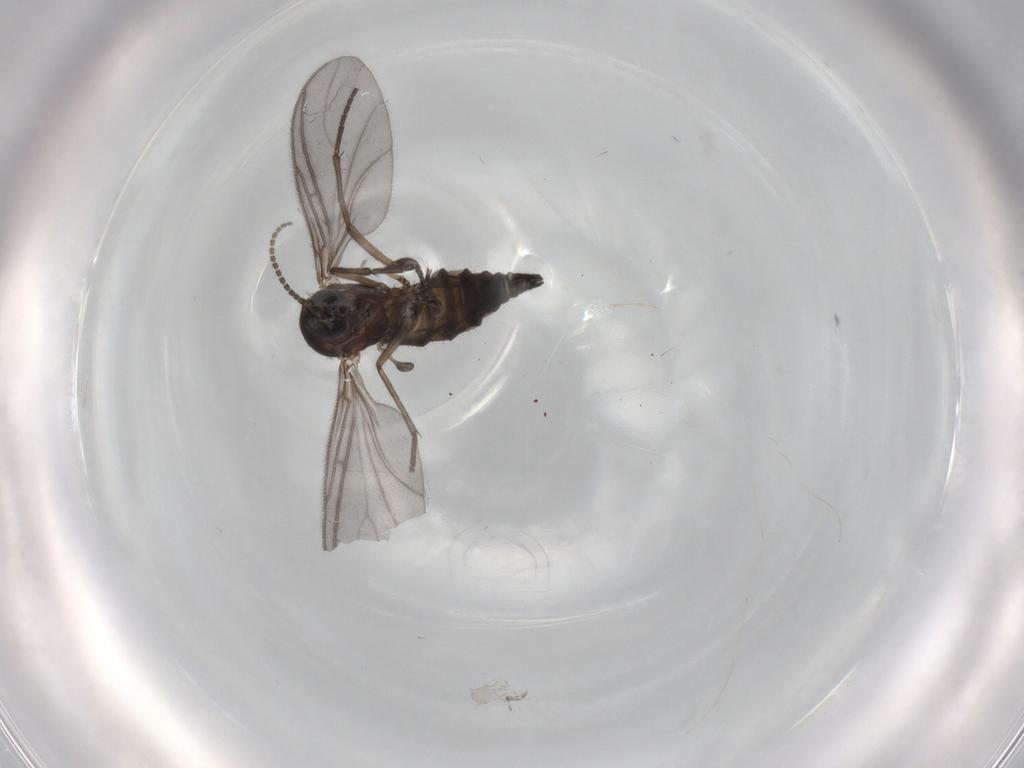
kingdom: Animalia
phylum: Arthropoda
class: Insecta
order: Diptera
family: Sciaridae
